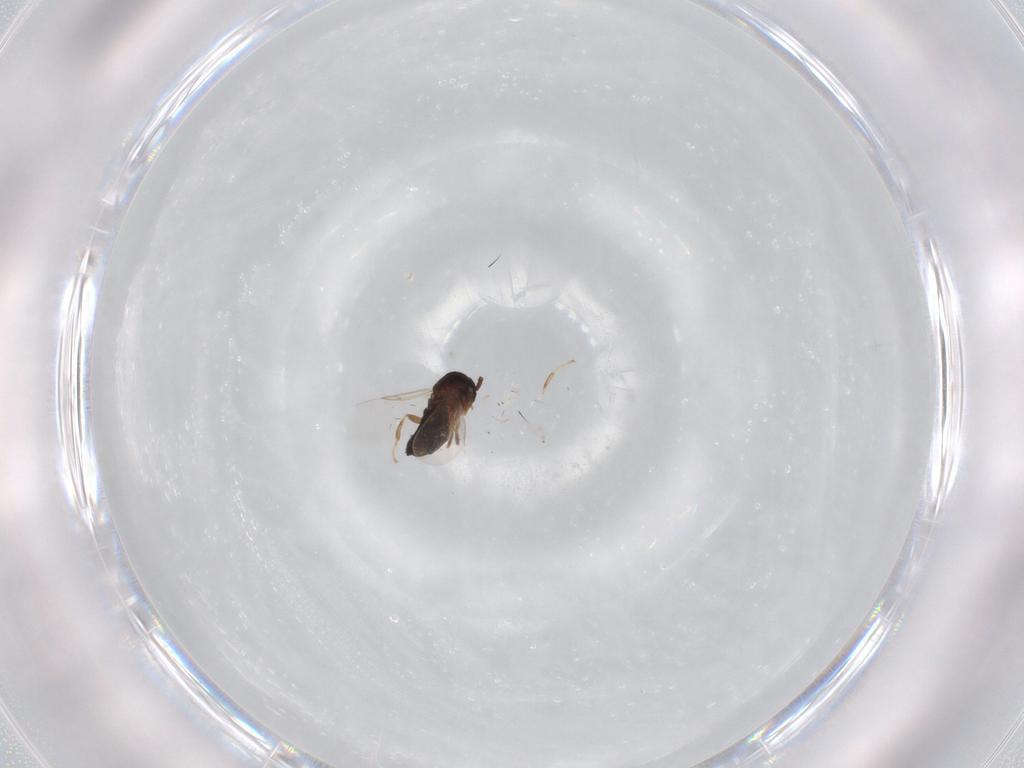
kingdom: Animalia
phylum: Arthropoda
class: Insecta
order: Diptera
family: Scatopsidae
